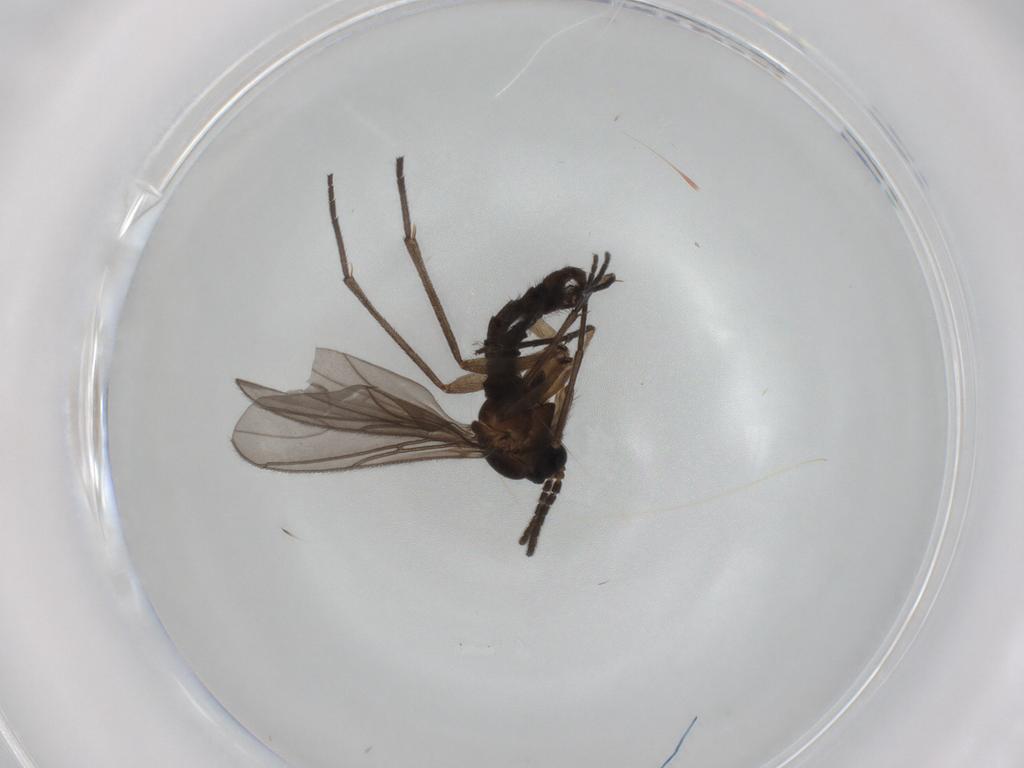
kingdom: Animalia
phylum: Arthropoda
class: Insecta
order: Diptera
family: Sciaridae
